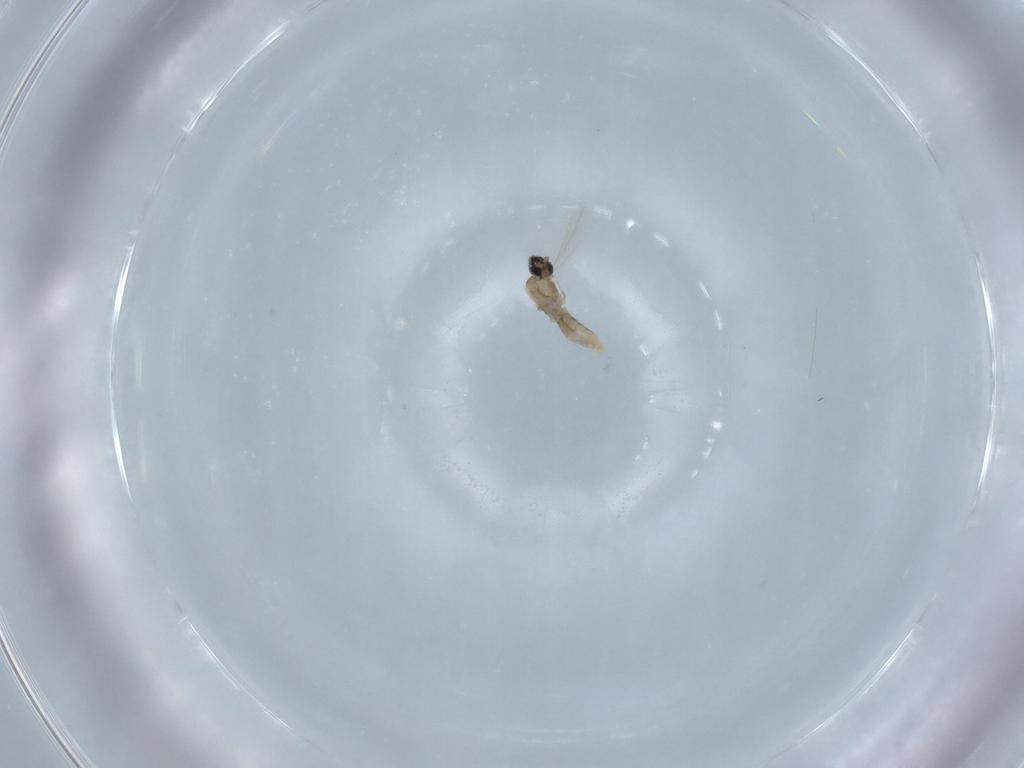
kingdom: Animalia
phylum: Arthropoda
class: Insecta
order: Diptera
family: Cecidomyiidae
